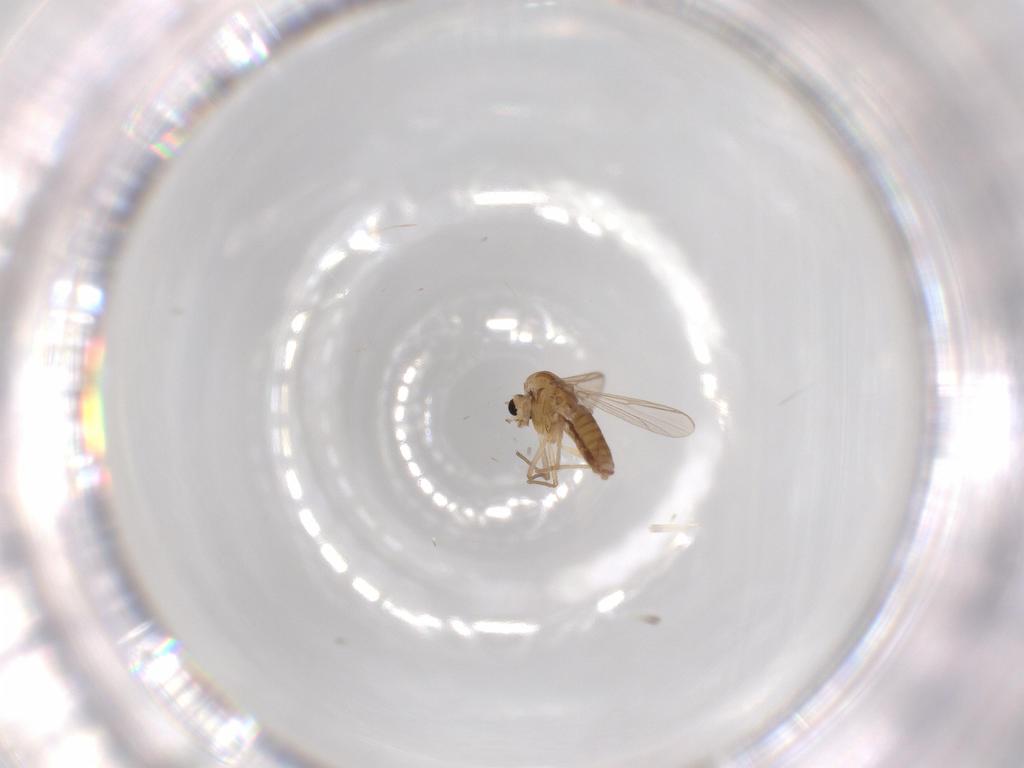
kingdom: Animalia
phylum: Arthropoda
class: Insecta
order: Diptera
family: Chironomidae
